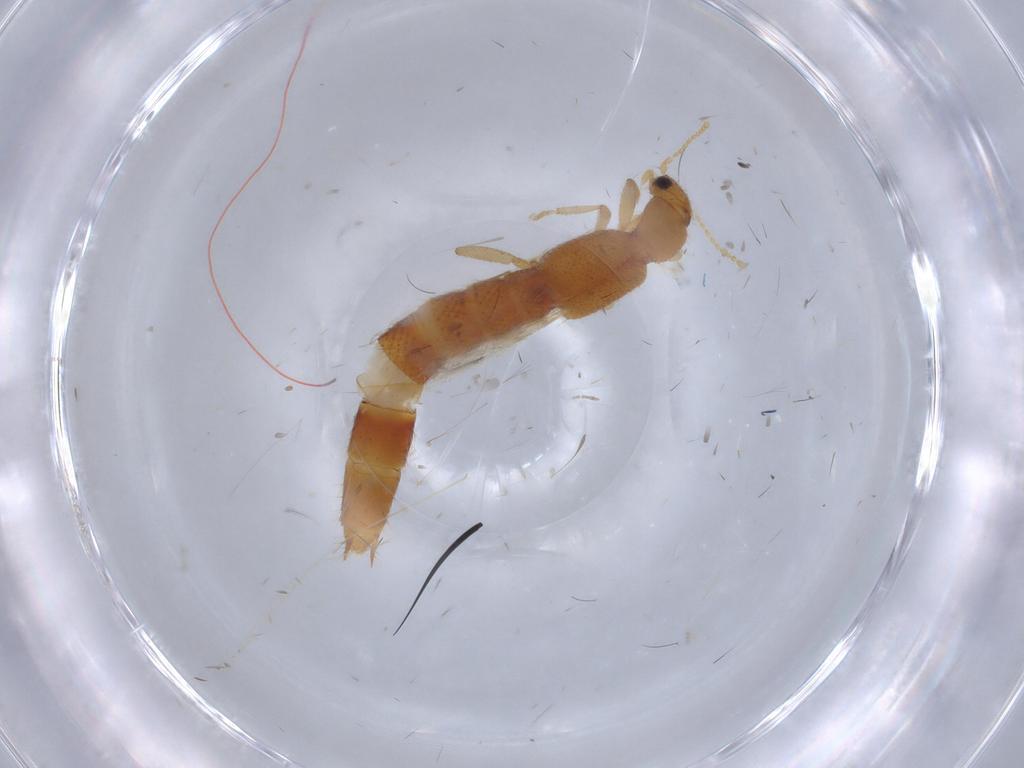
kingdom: Animalia
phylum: Arthropoda
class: Insecta
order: Coleoptera
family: Staphylinidae
